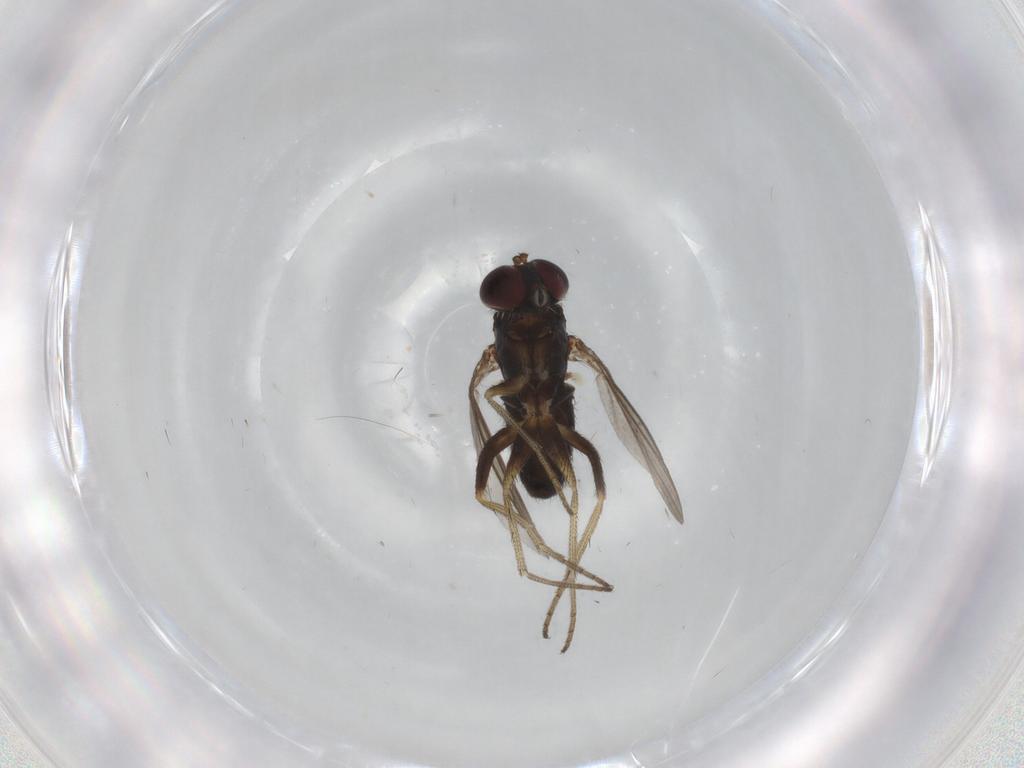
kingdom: Animalia
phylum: Arthropoda
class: Insecta
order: Diptera
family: Dolichopodidae
